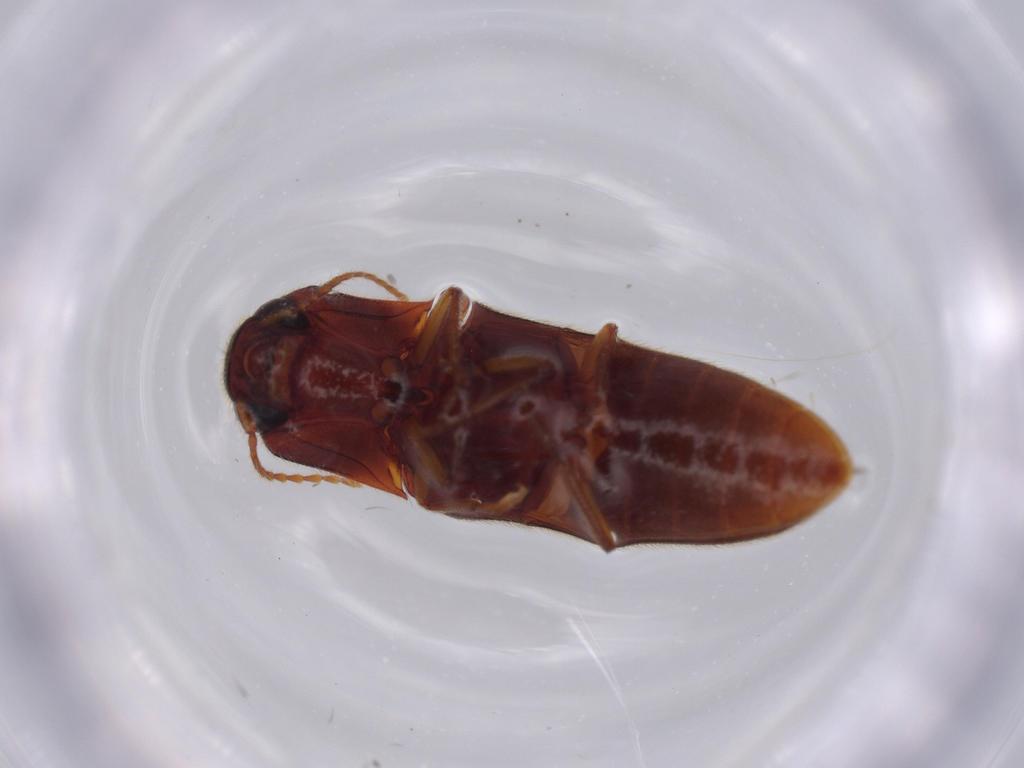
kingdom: Animalia
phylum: Arthropoda
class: Insecta
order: Coleoptera
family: Elateridae
